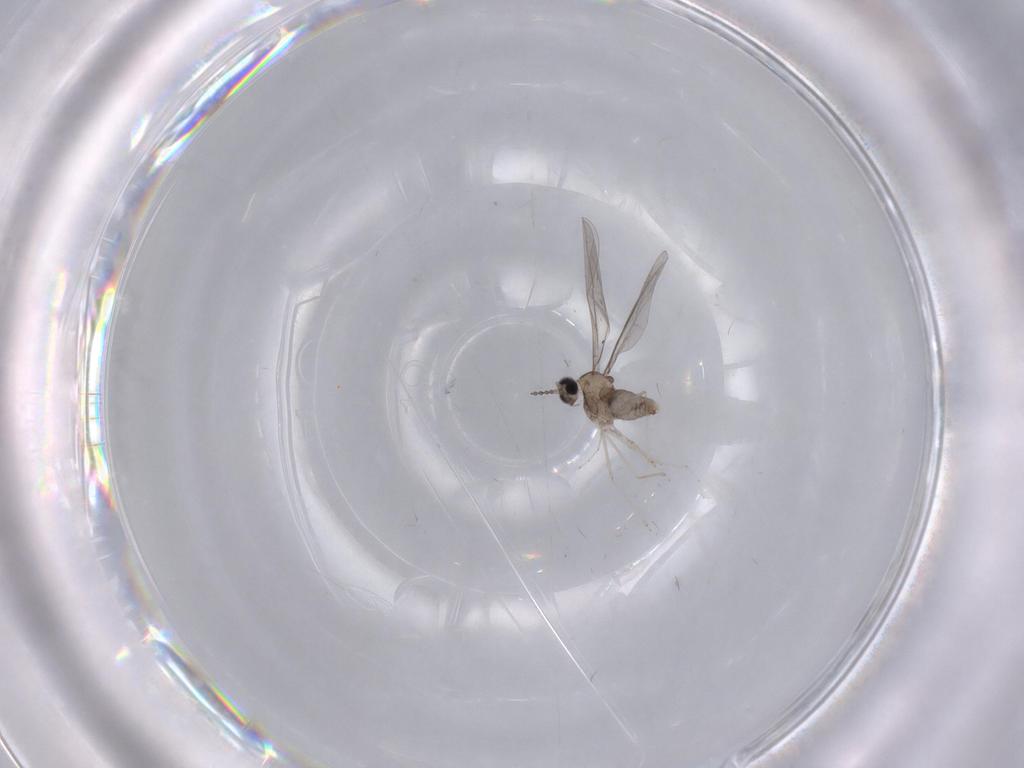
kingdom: Animalia
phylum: Arthropoda
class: Insecta
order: Diptera
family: Cecidomyiidae
